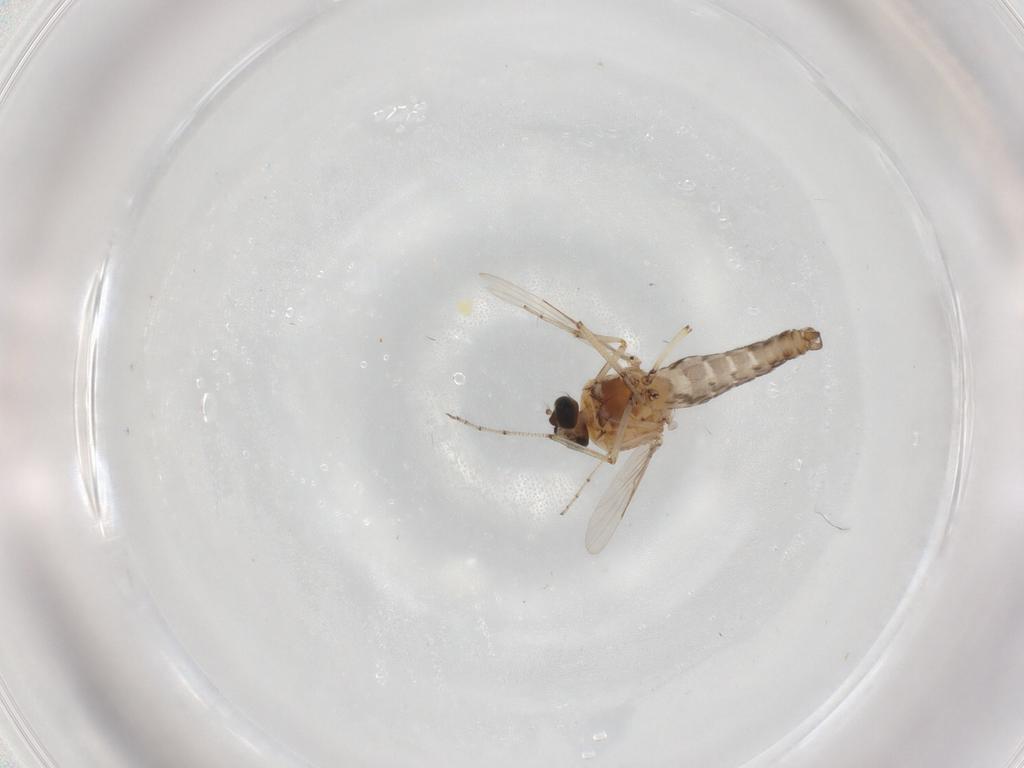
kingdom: Animalia
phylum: Arthropoda
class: Insecta
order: Diptera
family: Ceratopogonidae
